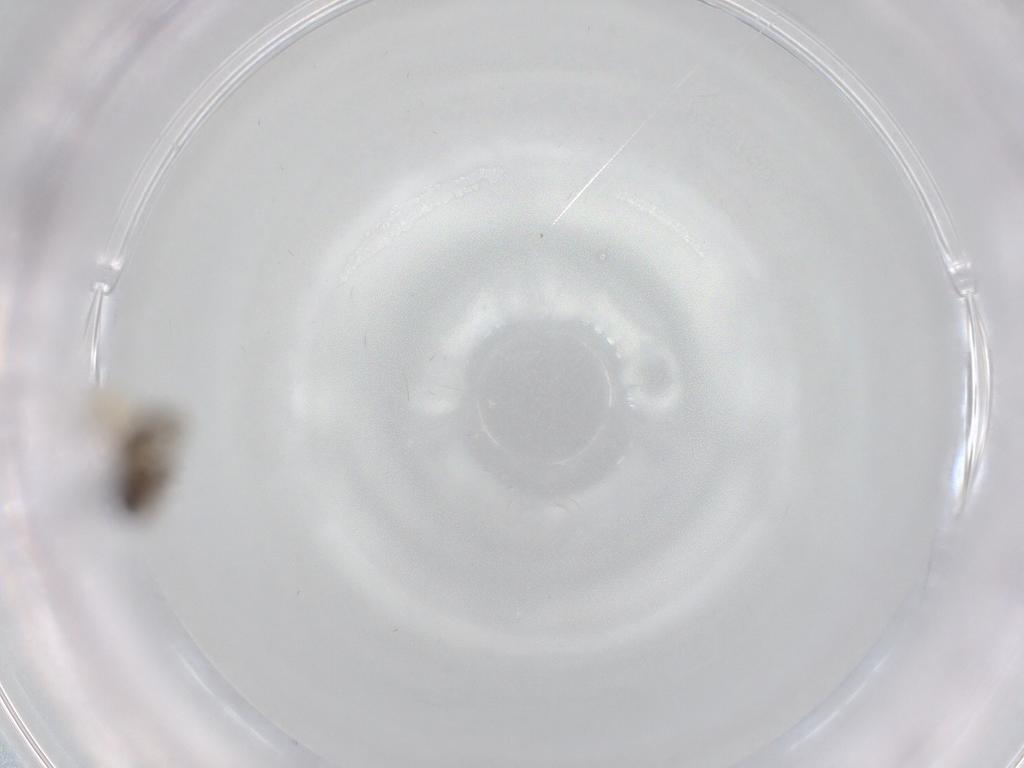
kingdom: Animalia
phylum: Arthropoda
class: Insecta
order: Diptera
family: Chironomidae
